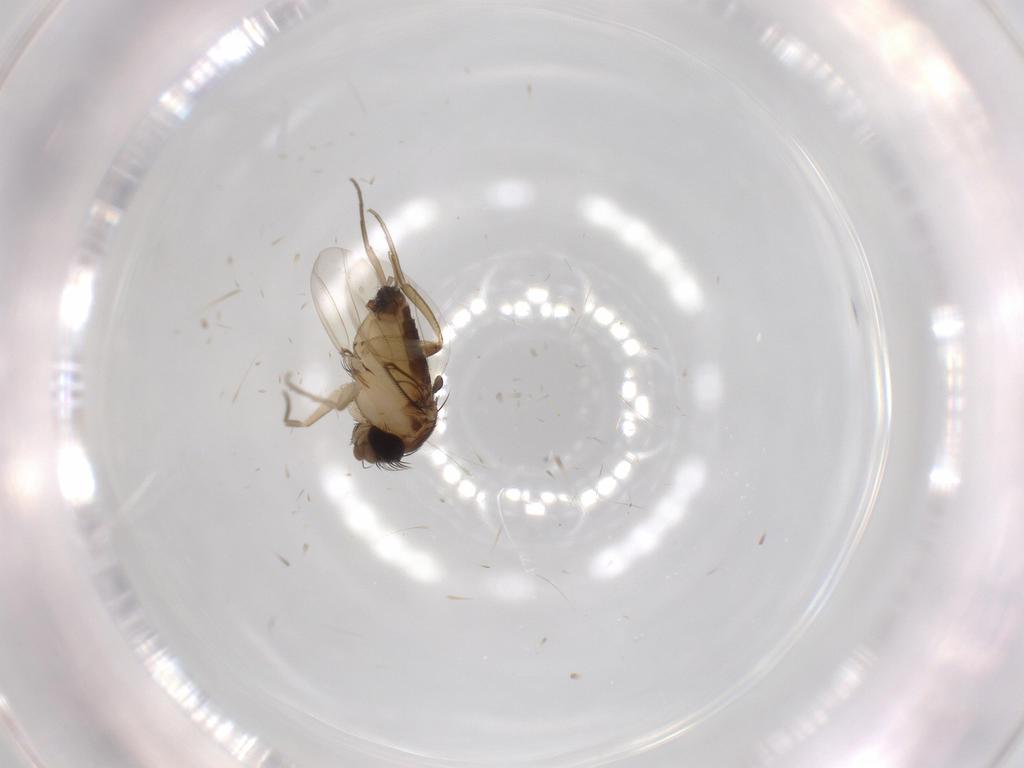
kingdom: Animalia
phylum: Arthropoda
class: Insecta
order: Diptera
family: Phoridae
